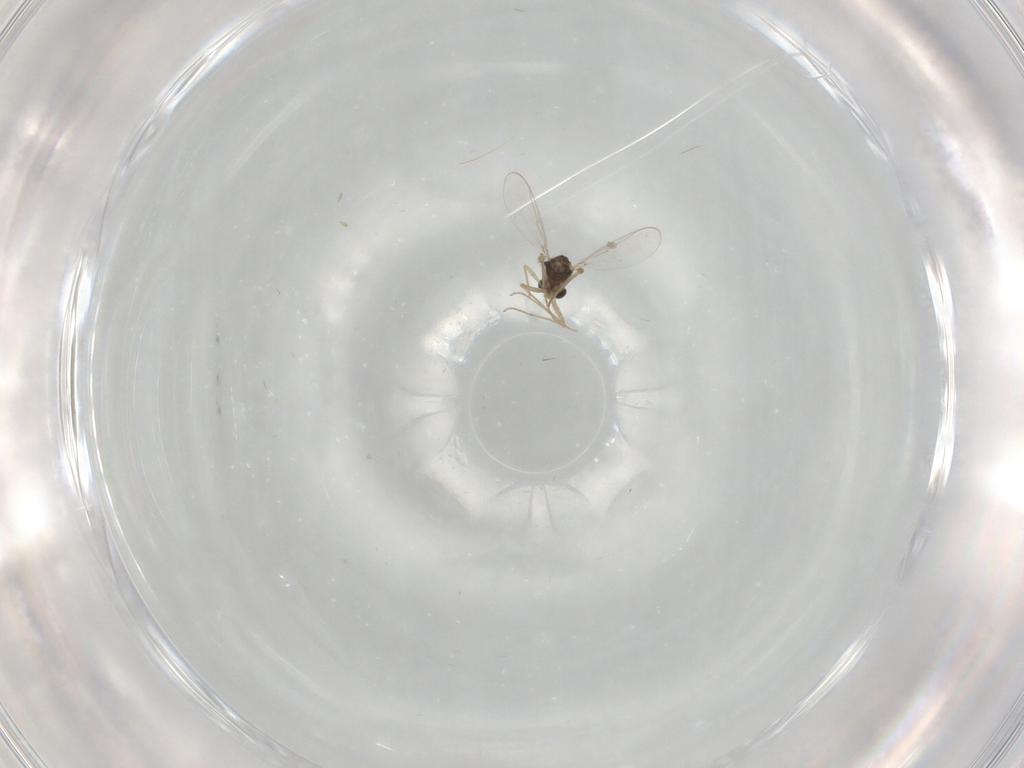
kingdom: Animalia
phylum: Arthropoda
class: Insecta
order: Diptera
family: Chironomidae
